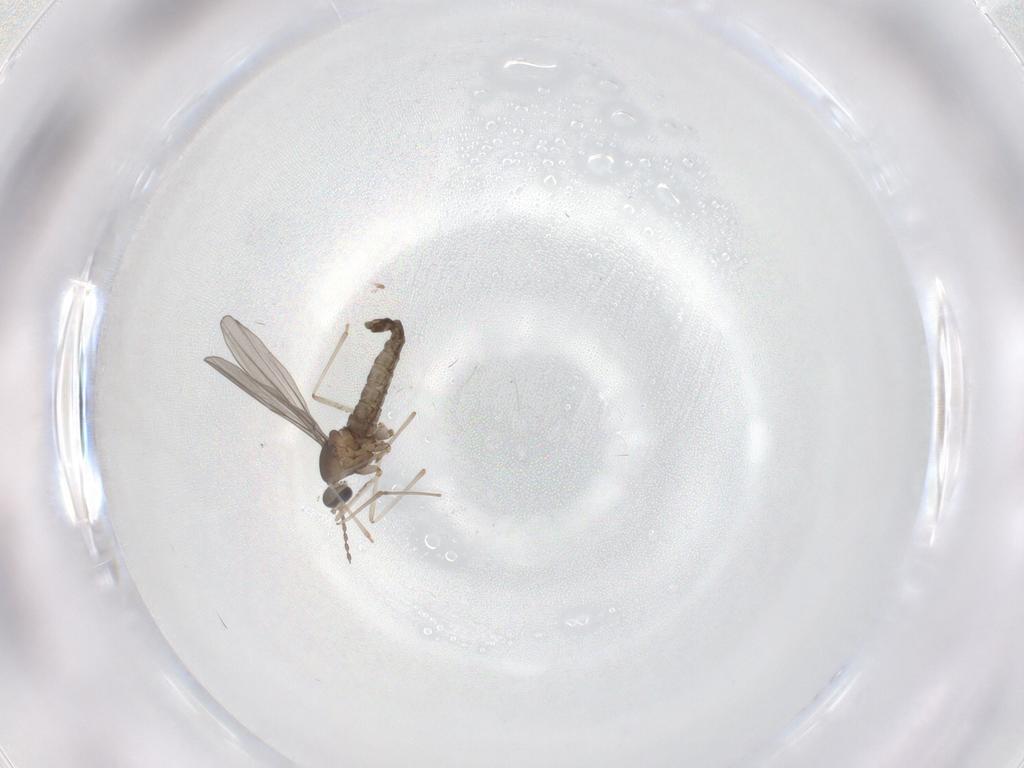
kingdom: Animalia
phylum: Arthropoda
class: Insecta
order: Diptera
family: Cecidomyiidae
